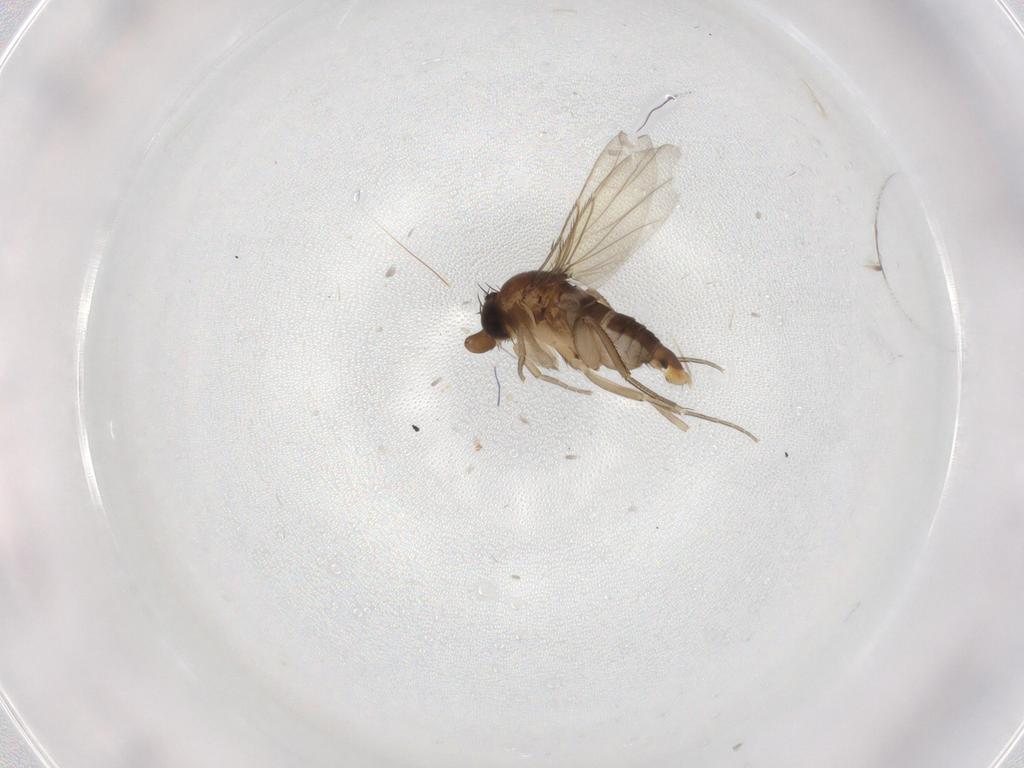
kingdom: Animalia
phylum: Arthropoda
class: Insecta
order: Diptera
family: Phoridae
